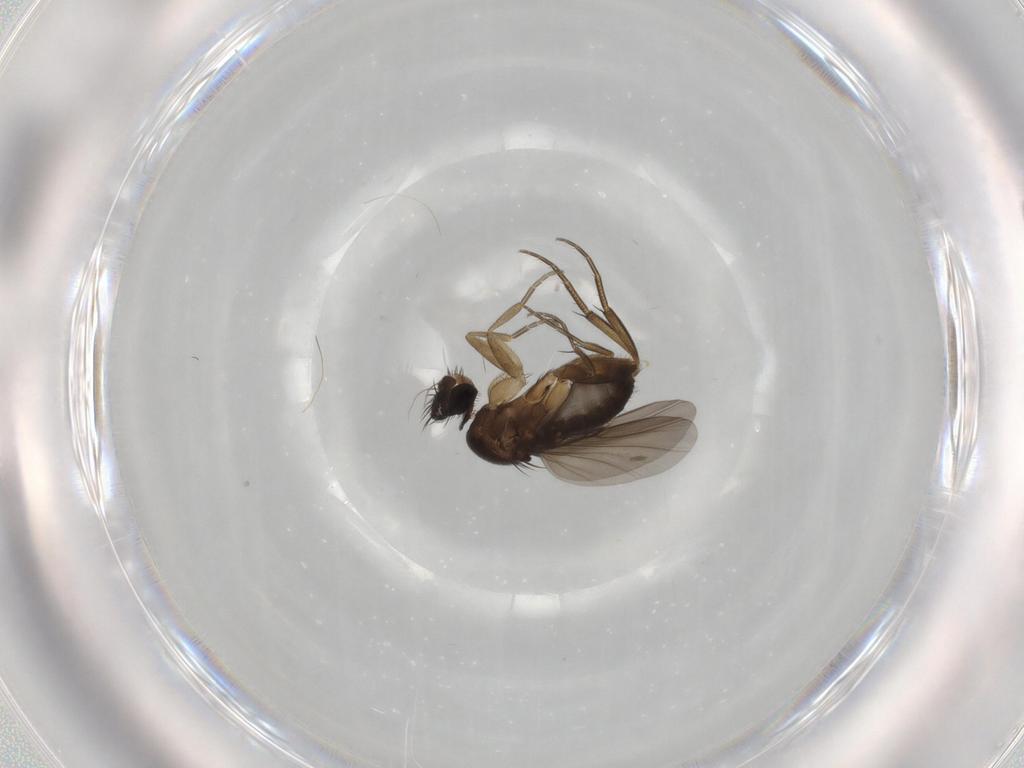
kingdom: Animalia
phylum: Arthropoda
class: Insecta
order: Diptera
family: Phoridae
